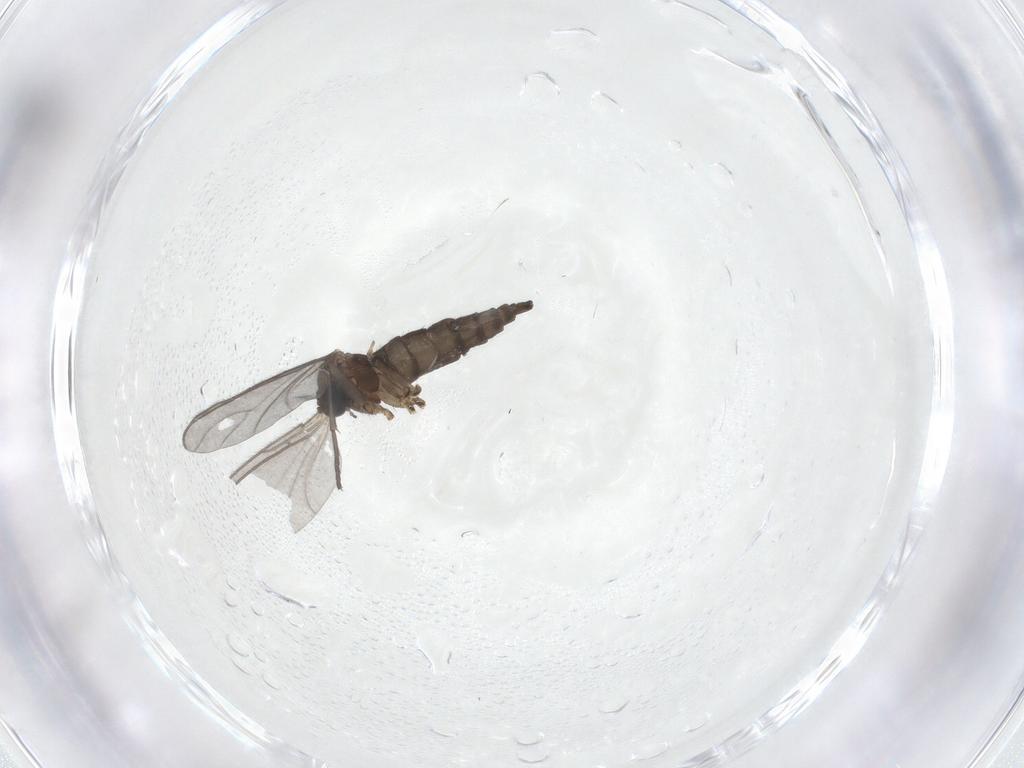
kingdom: Animalia
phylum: Arthropoda
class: Insecta
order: Diptera
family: Sciaridae
